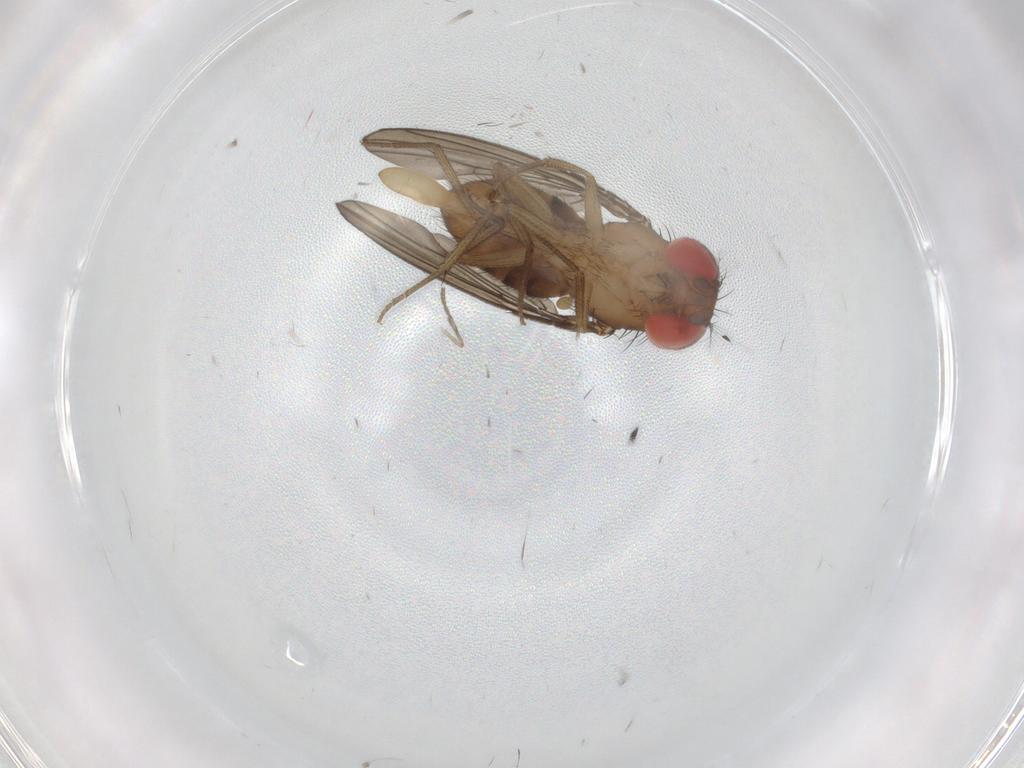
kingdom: Animalia
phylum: Arthropoda
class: Insecta
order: Diptera
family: Drosophilidae
